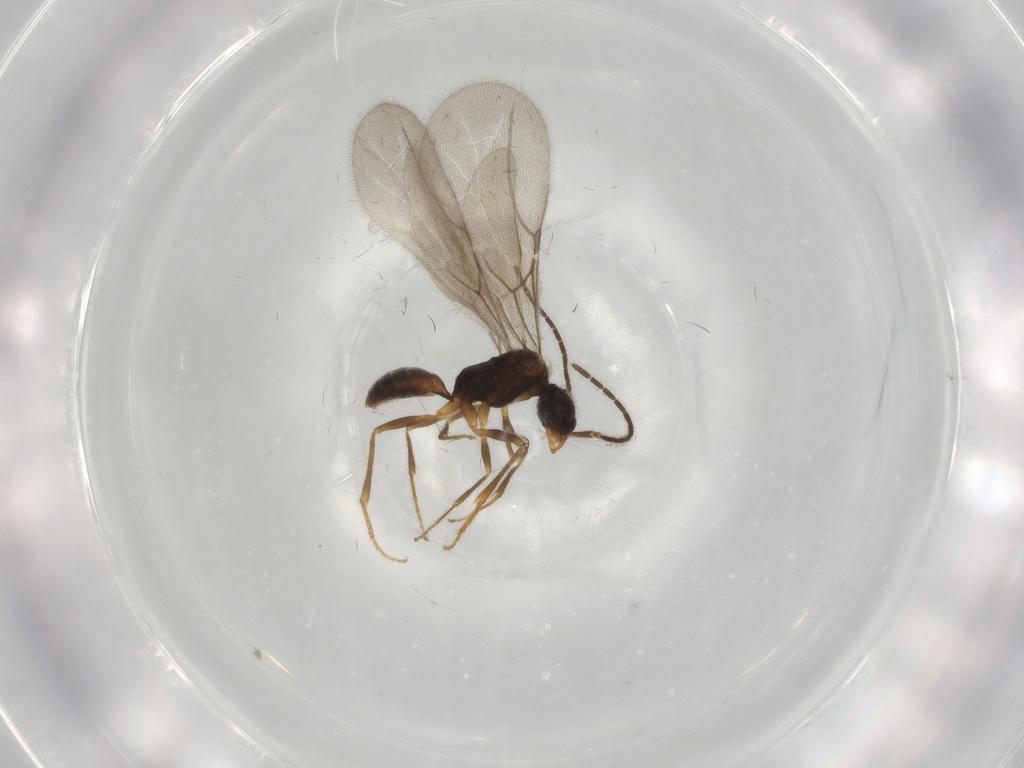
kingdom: Animalia
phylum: Arthropoda
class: Insecta
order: Hymenoptera
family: Bethylidae
